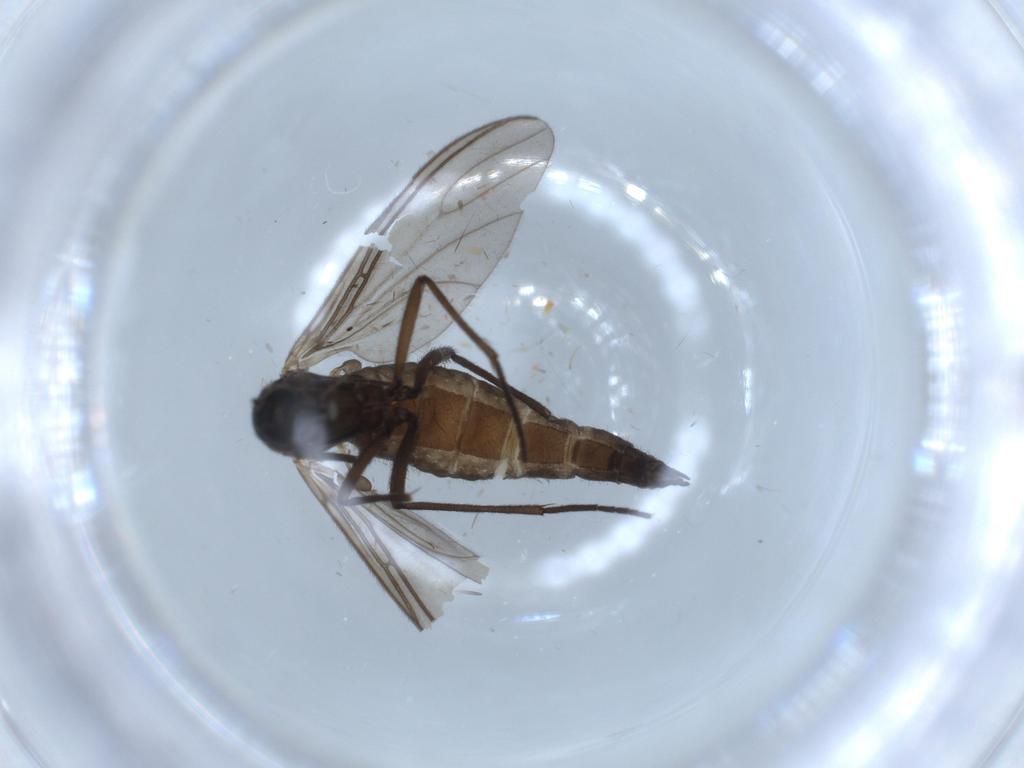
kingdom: Animalia
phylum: Arthropoda
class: Insecta
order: Diptera
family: Sciaridae
